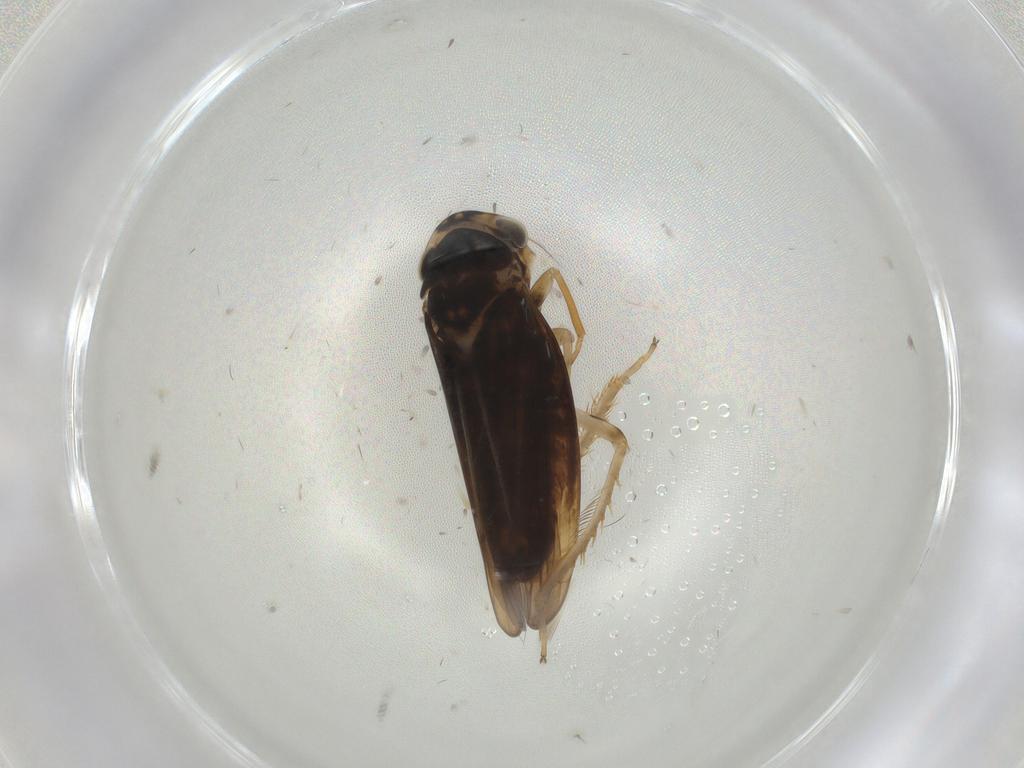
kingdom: Animalia
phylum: Arthropoda
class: Insecta
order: Hemiptera
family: Cicadellidae
